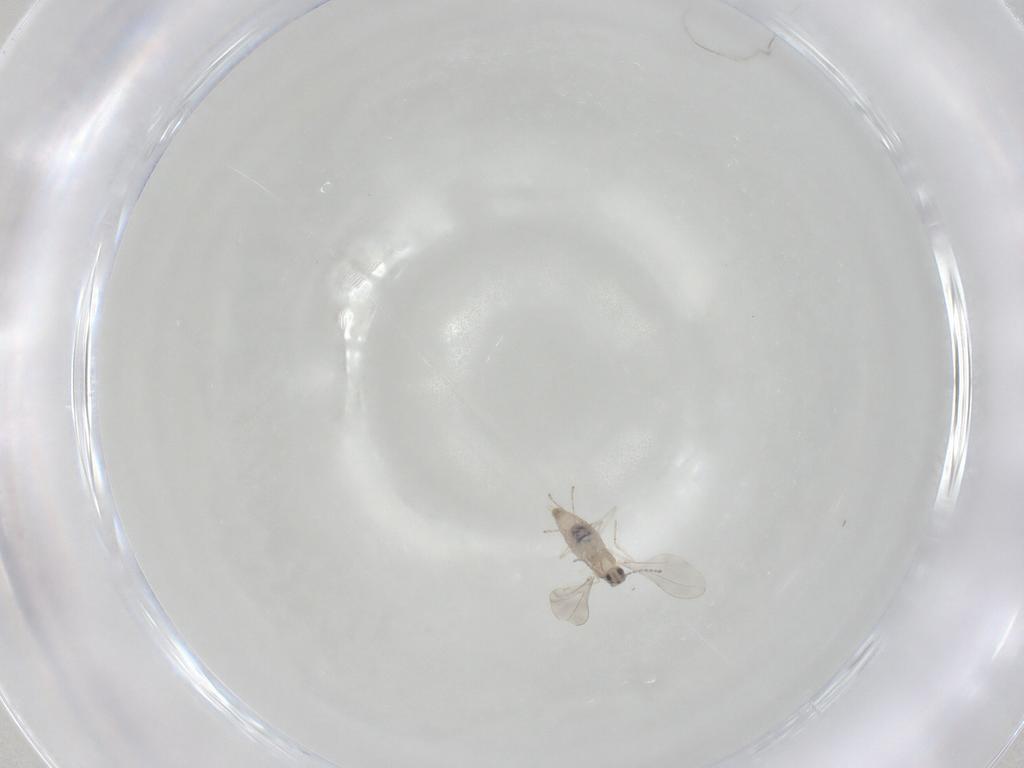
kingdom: Animalia
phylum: Arthropoda
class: Insecta
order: Diptera
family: Cecidomyiidae
